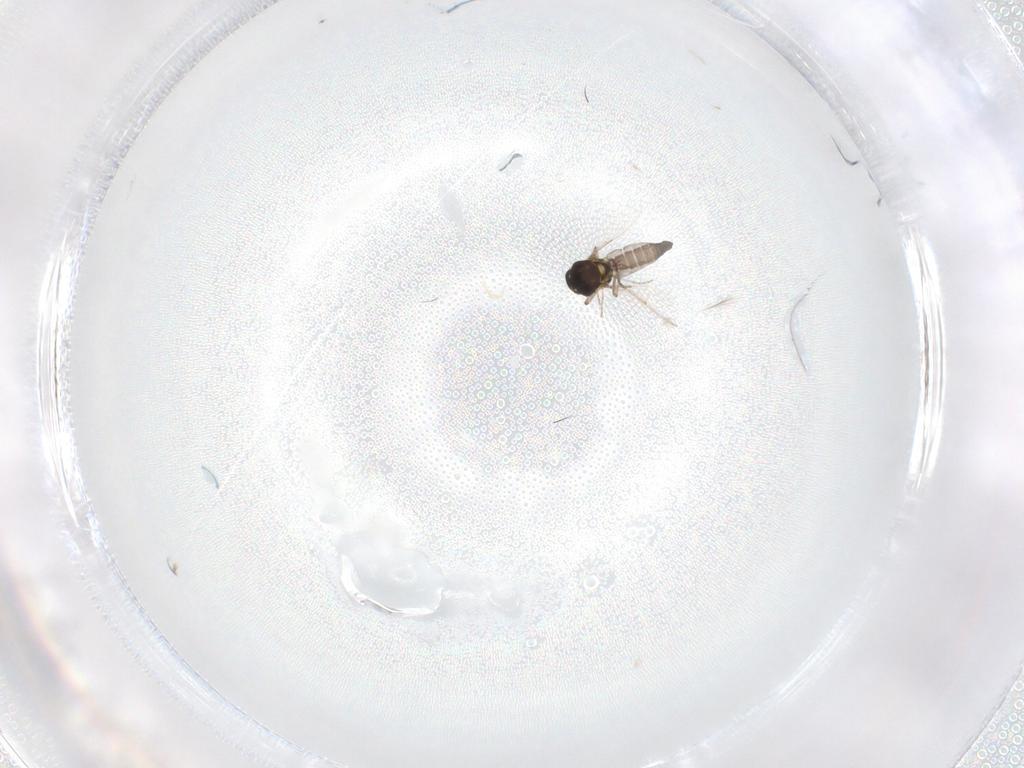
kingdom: Animalia
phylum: Arthropoda
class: Insecta
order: Diptera
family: Ceratopogonidae
